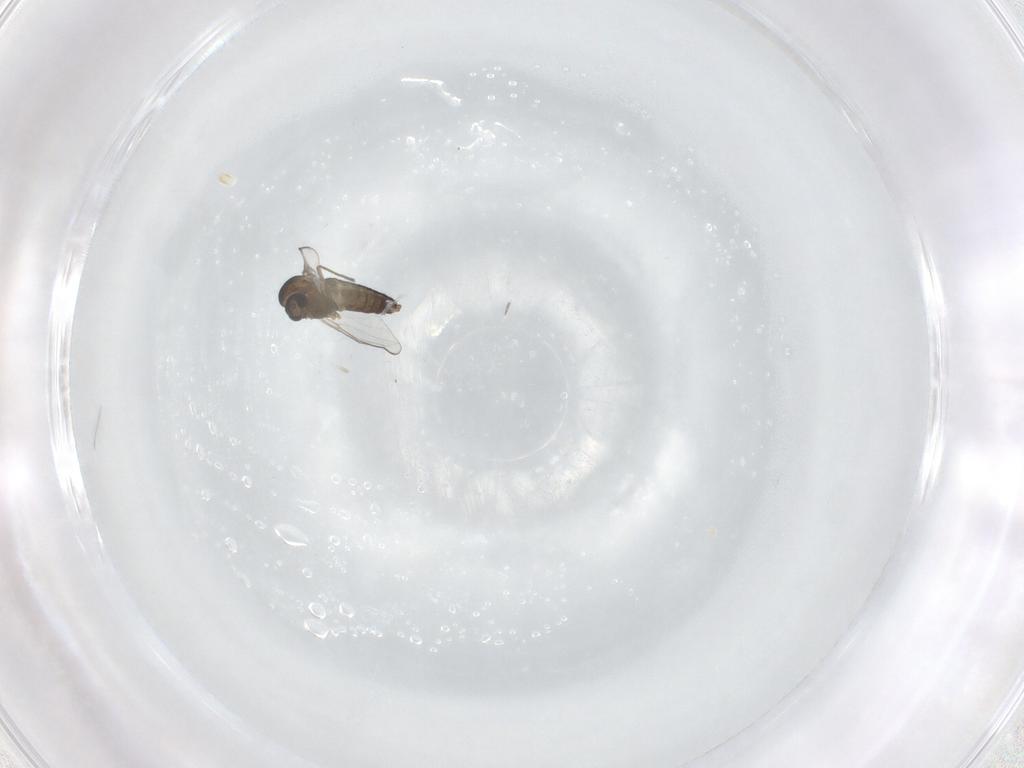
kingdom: Animalia
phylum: Arthropoda
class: Insecta
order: Diptera
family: Chironomidae
